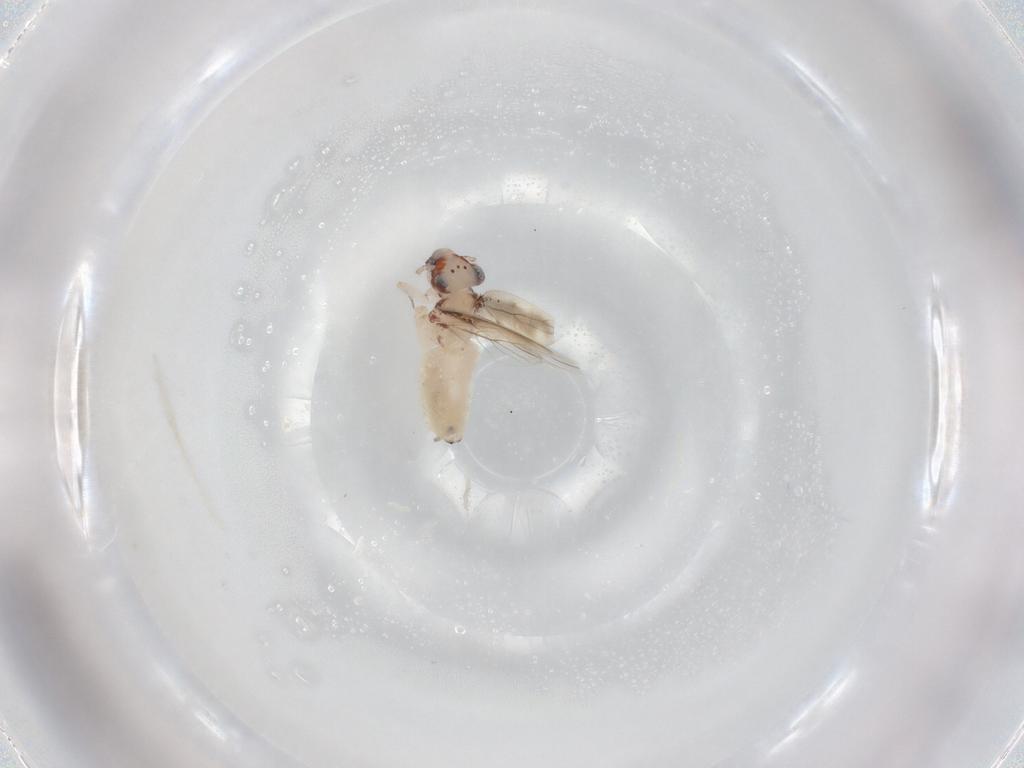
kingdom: Animalia
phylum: Arthropoda
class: Insecta
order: Psocodea
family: Lepidopsocidae
